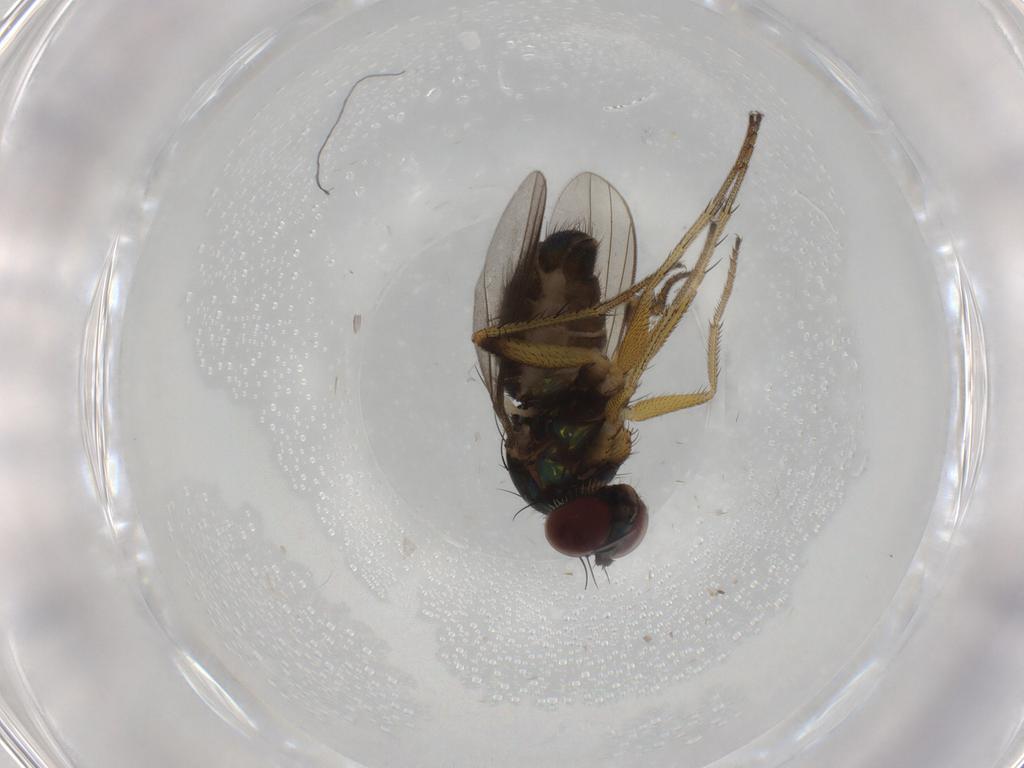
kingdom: Animalia
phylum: Arthropoda
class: Insecta
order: Diptera
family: Dolichopodidae
